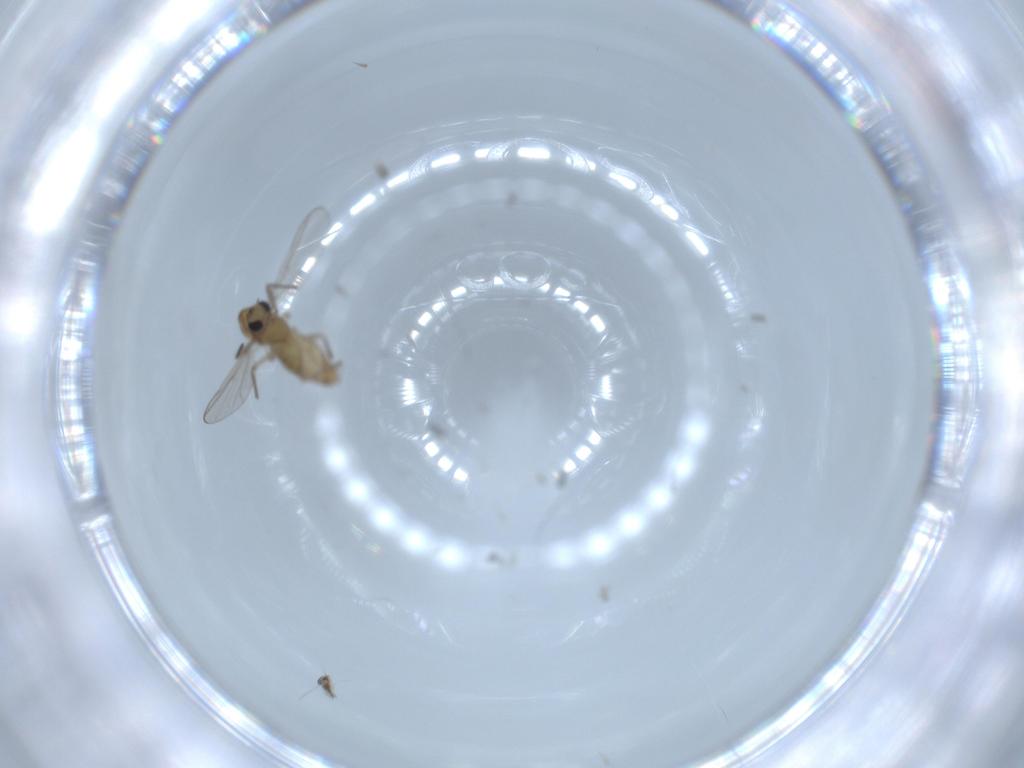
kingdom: Animalia
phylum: Arthropoda
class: Insecta
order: Diptera
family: Chironomidae
